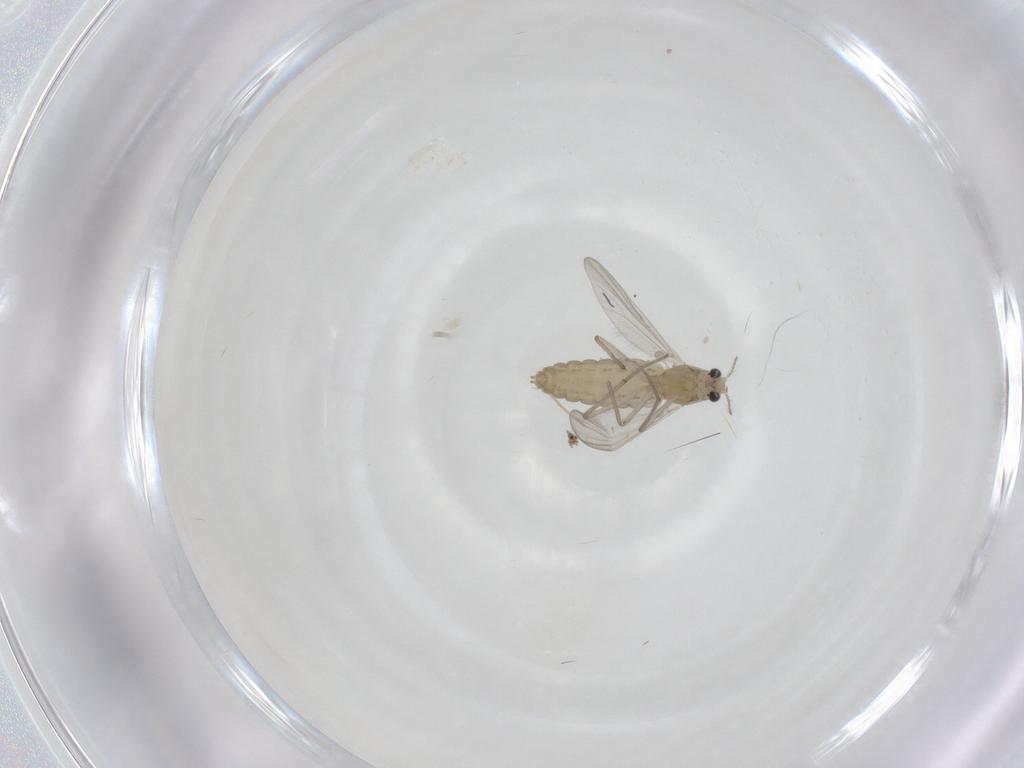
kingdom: Animalia
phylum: Arthropoda
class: Insecta
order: Diptera
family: Chironomidae
